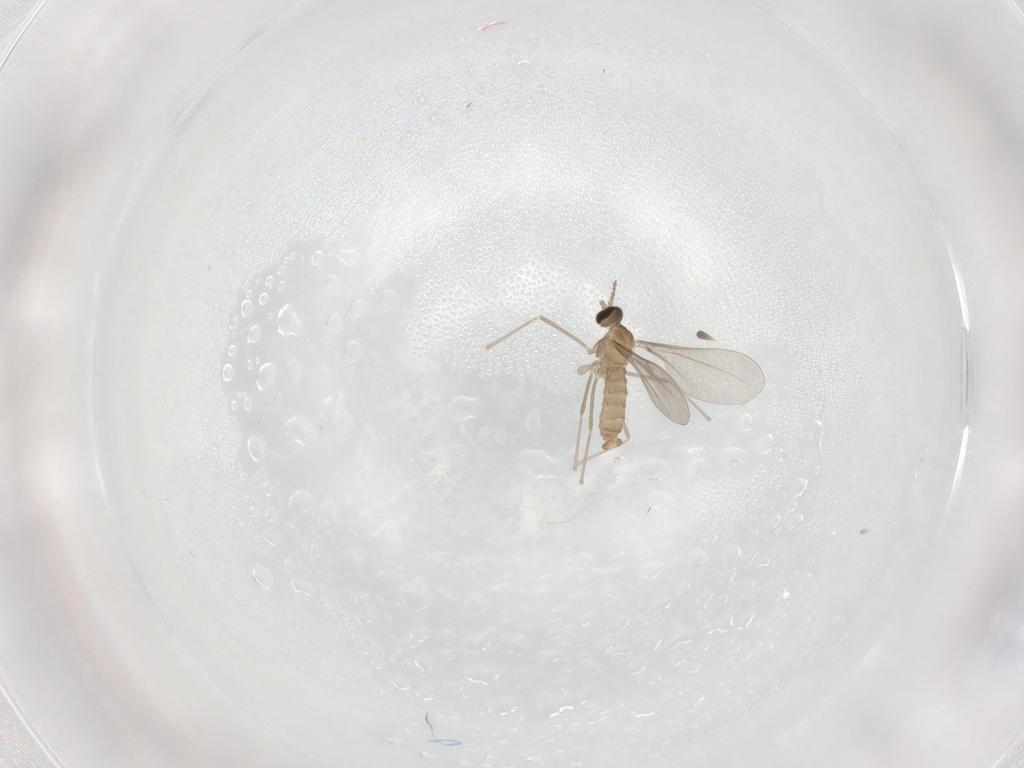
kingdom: Animalia
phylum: Arthropoda
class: Insecta
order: Diptera
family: Cecidomyiidae
